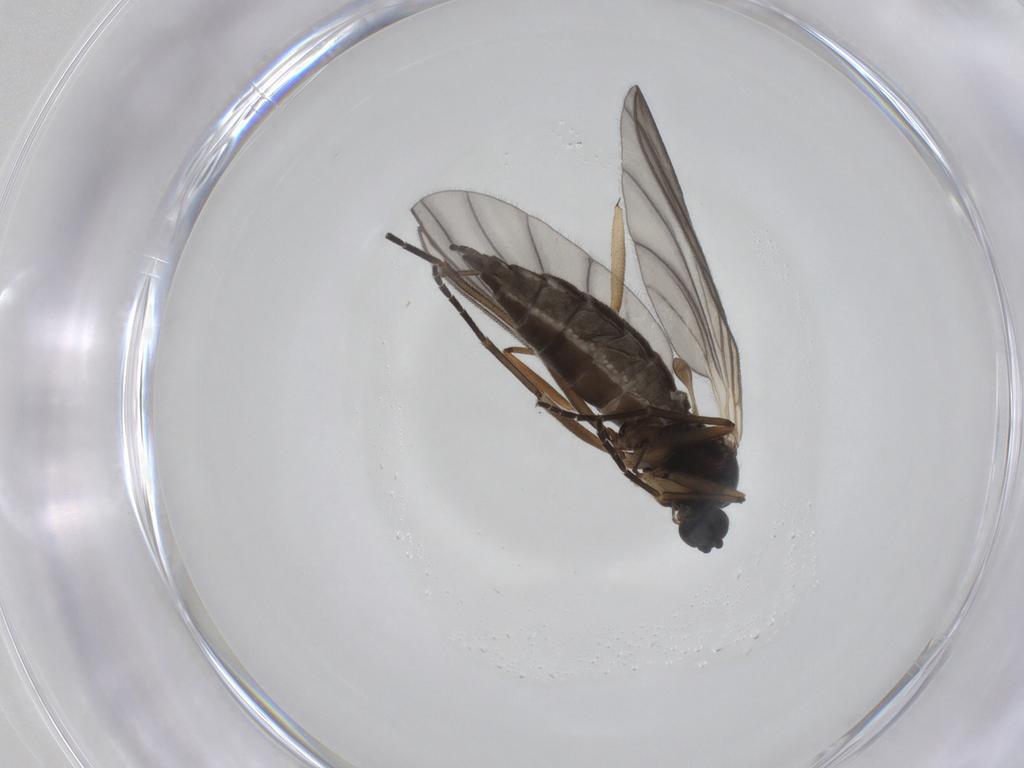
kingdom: Animalia
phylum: Arthropoda
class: Insecta
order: Diptera
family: Sciaridae
